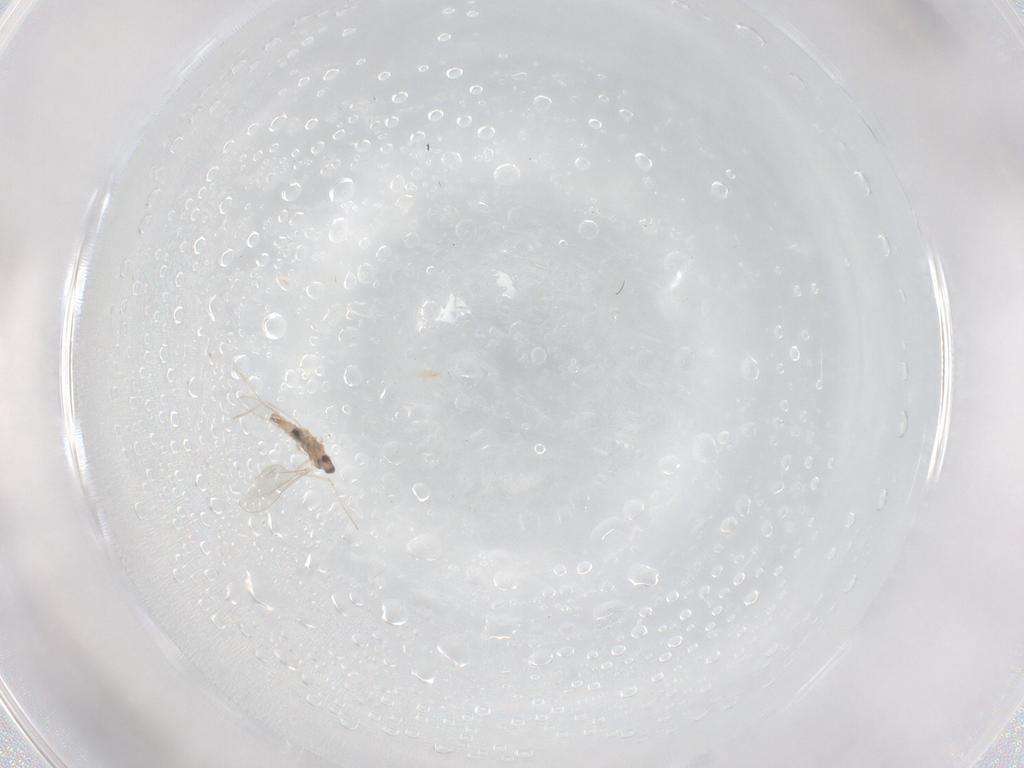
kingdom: Animalia
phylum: Arthropoda
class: Insecta
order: Diptera
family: Cecidomyiidae
